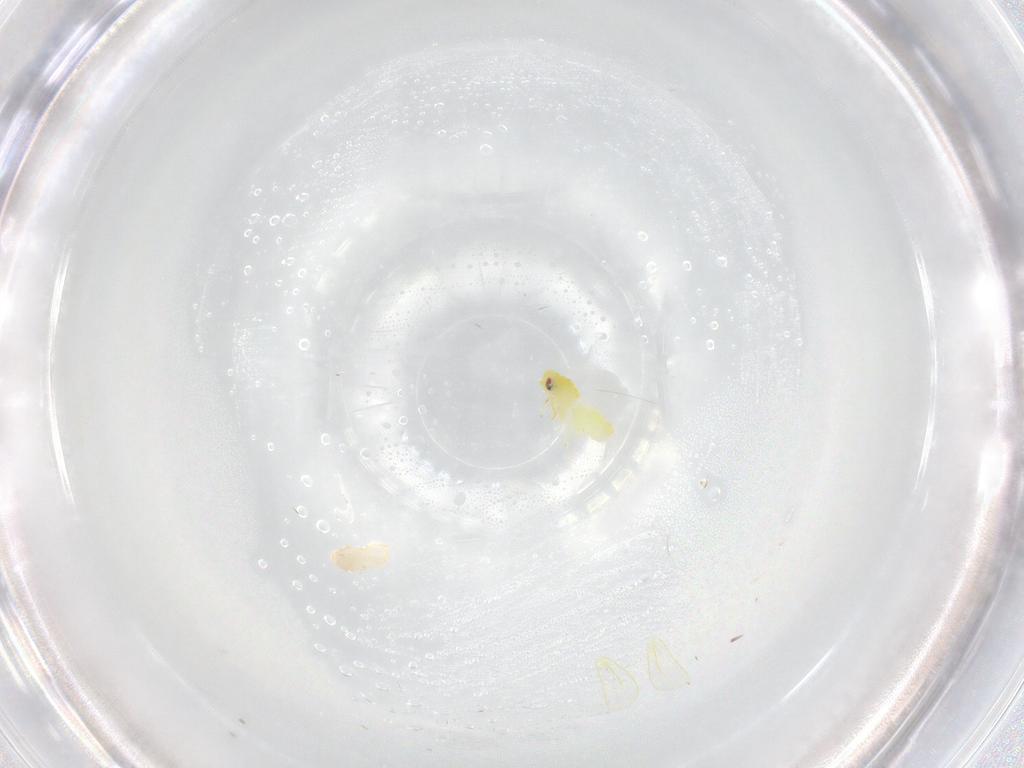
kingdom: Animalia
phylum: Arthropoda
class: Insecta
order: Hemiptera
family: Aleyrodidae
